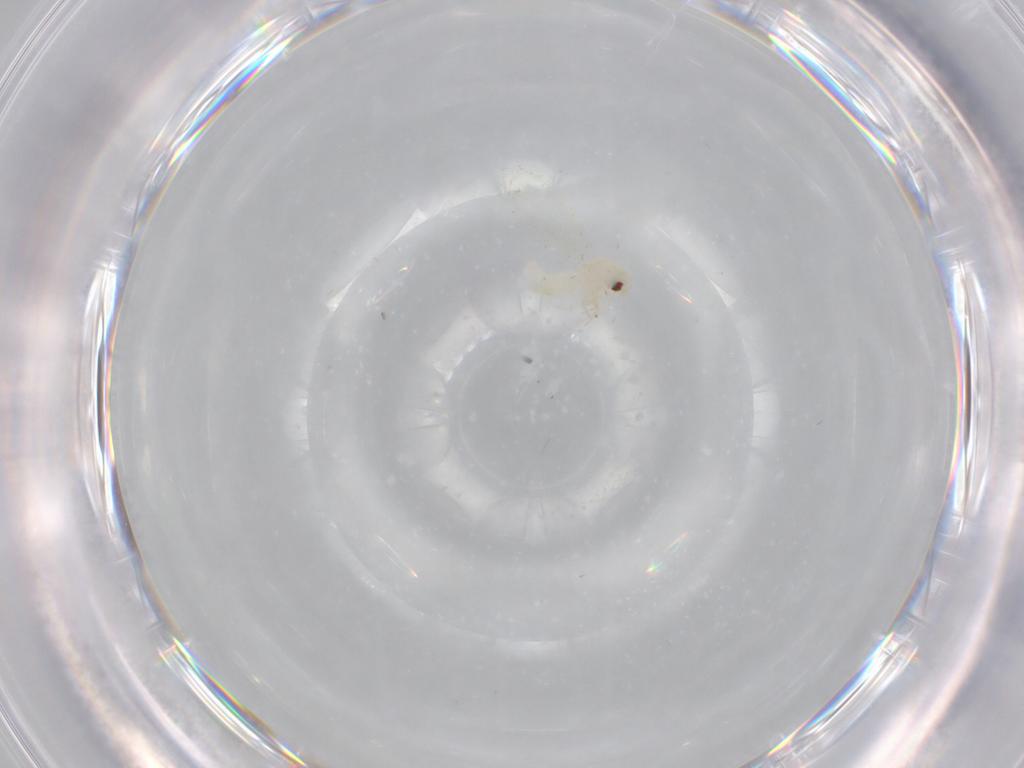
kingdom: Animalia
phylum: Arthropoda
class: Insecta
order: Hemiptera
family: Aleyrodidae
